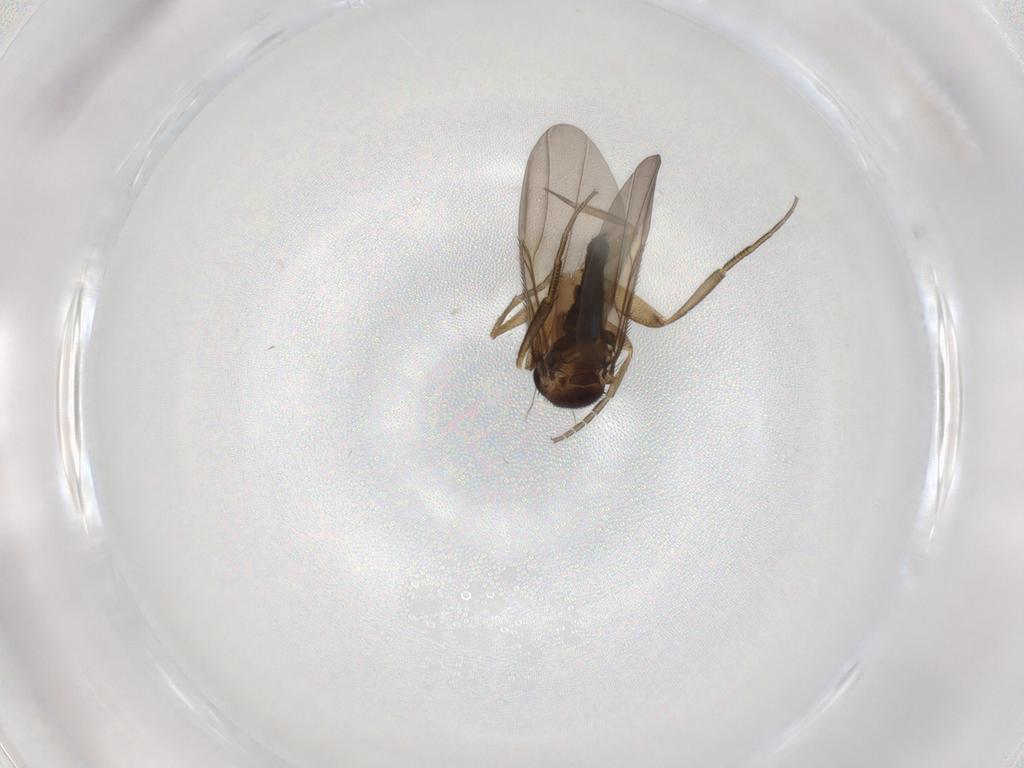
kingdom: Animalia
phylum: Arthropoda
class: Insecta
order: Diptera
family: Phoridae
